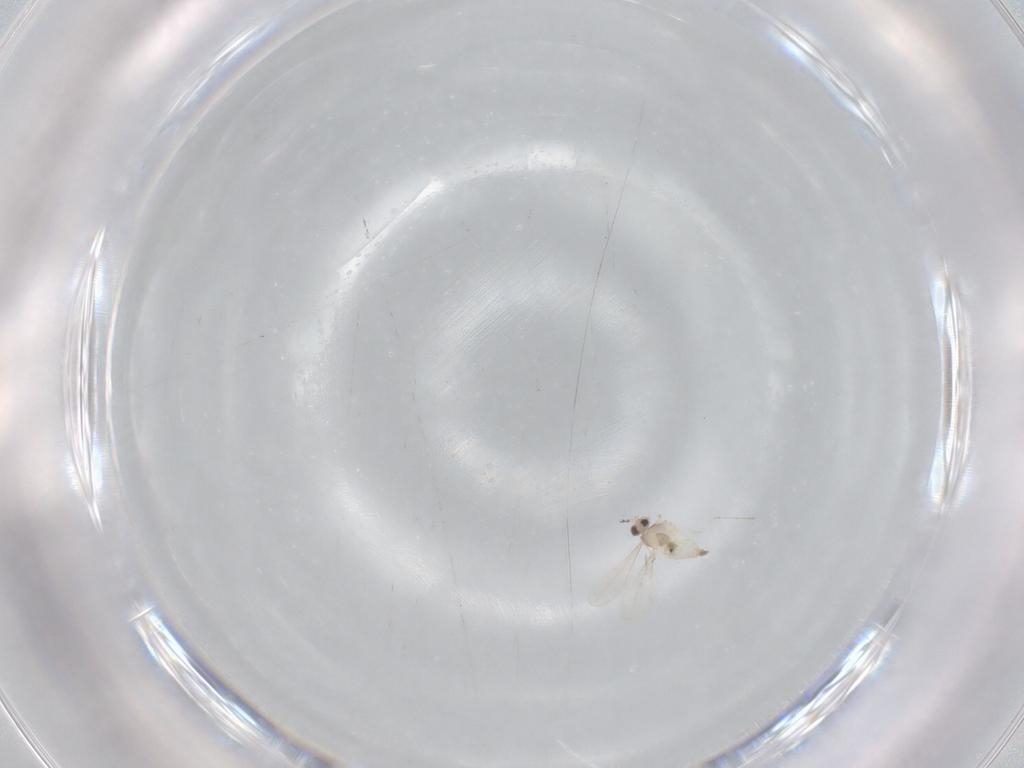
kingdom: Animalia
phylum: Arthropoda
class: Insecta
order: Diptera
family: Cecidomyiidae
